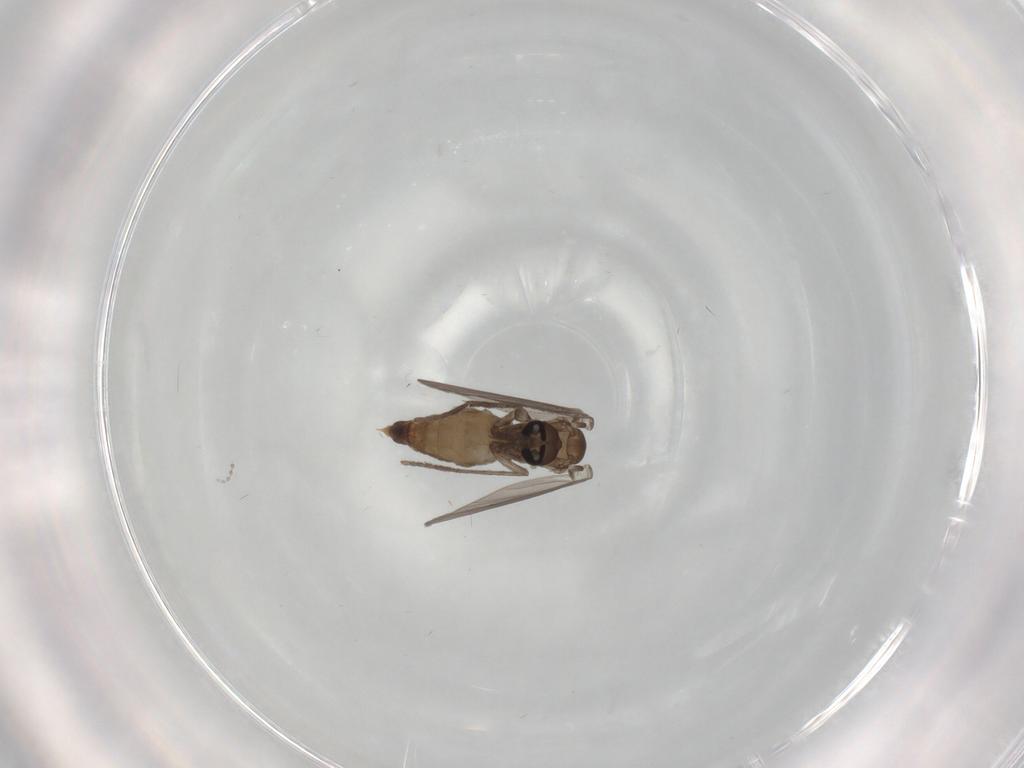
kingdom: Animalia
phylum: Arthropoda
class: Insecta
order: Diptera
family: Psychodidae
